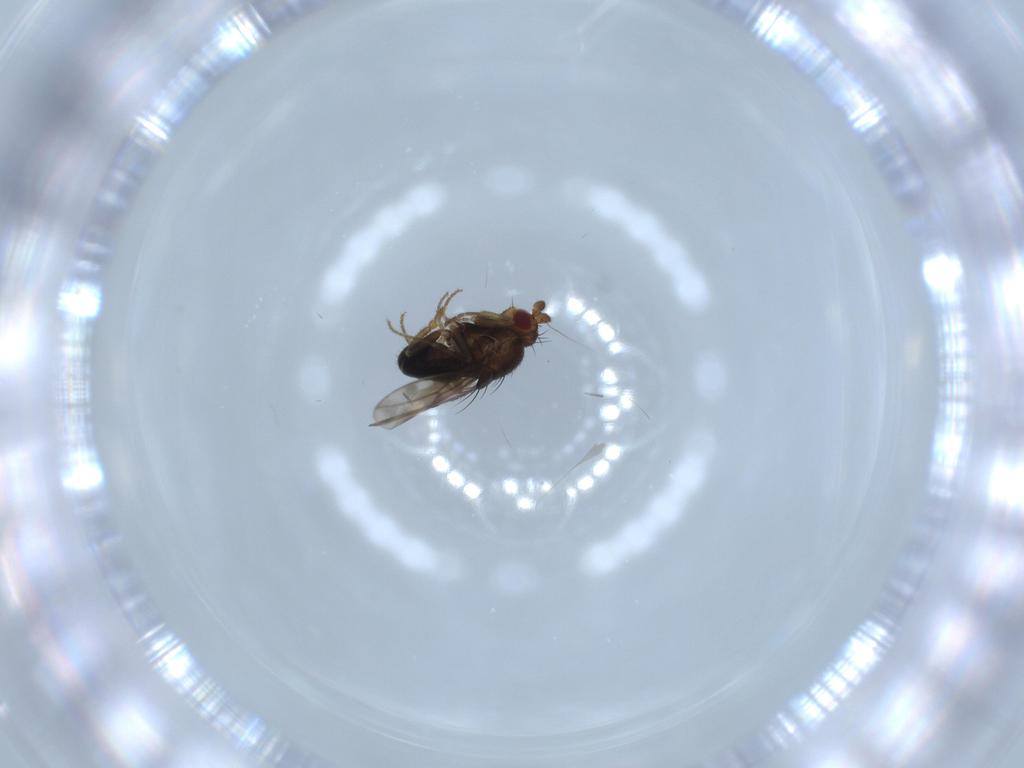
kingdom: Animalia
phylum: Arthropoda
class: Insecta
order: Diptera
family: Sphaeroceridae
